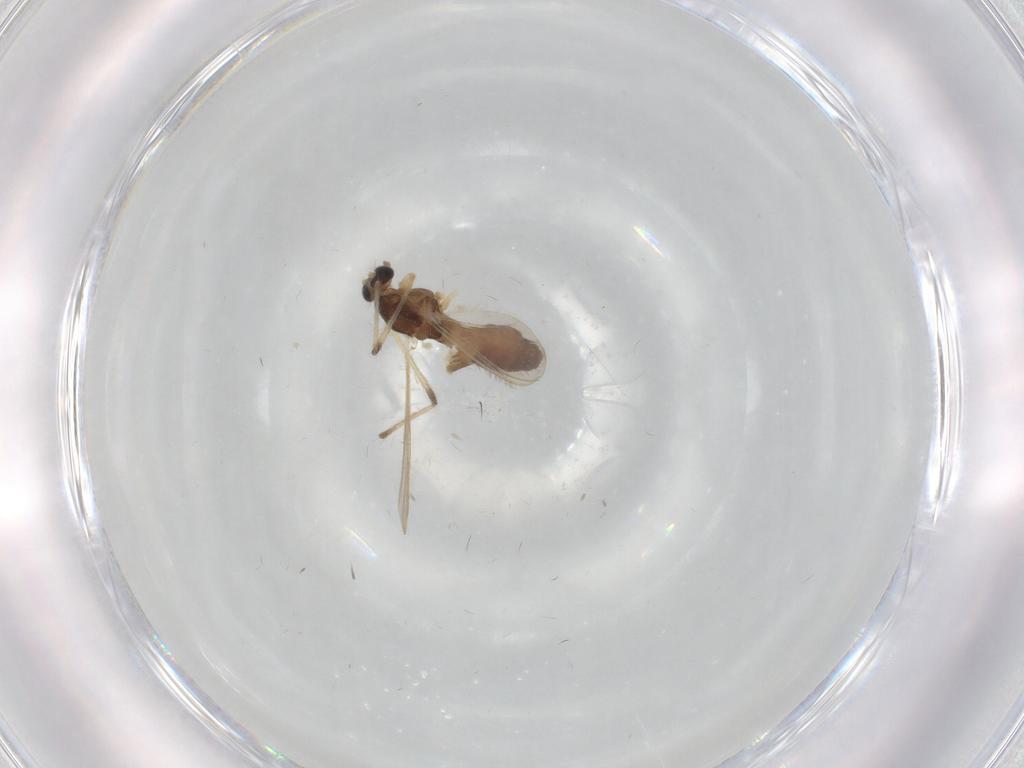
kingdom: Animalia
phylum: Arthropoda
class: Insecta
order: Diptera
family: Chironomidae
